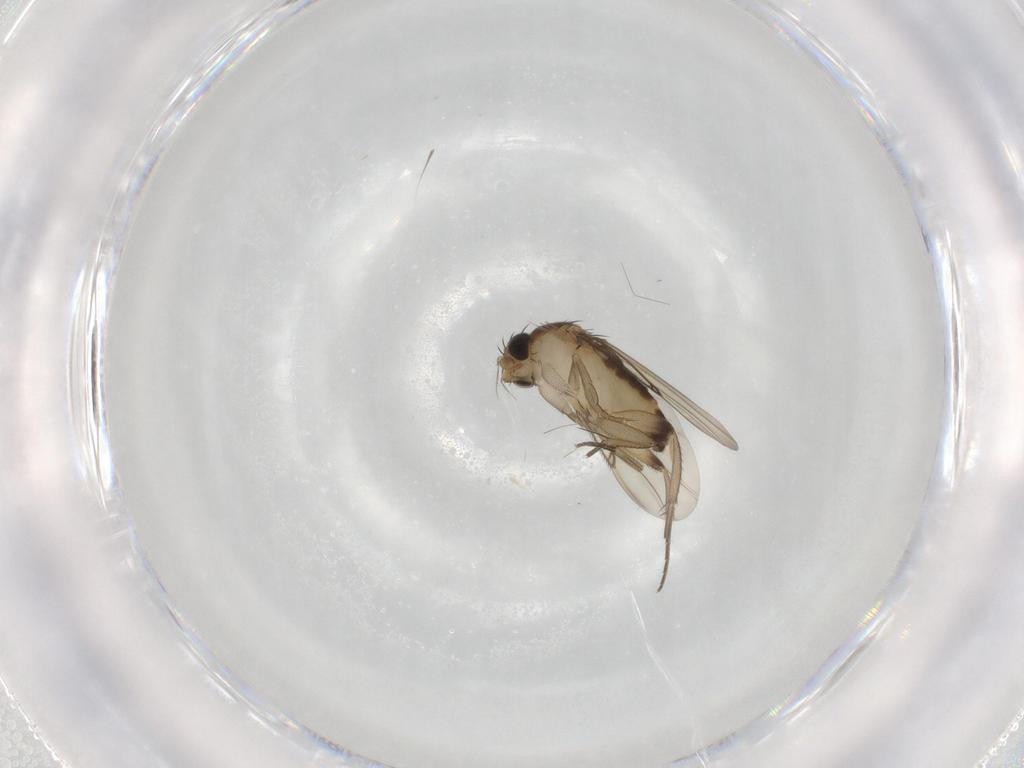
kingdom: Animalia
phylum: Arthropoda
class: Insecta
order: Diptera
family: Phoridae
